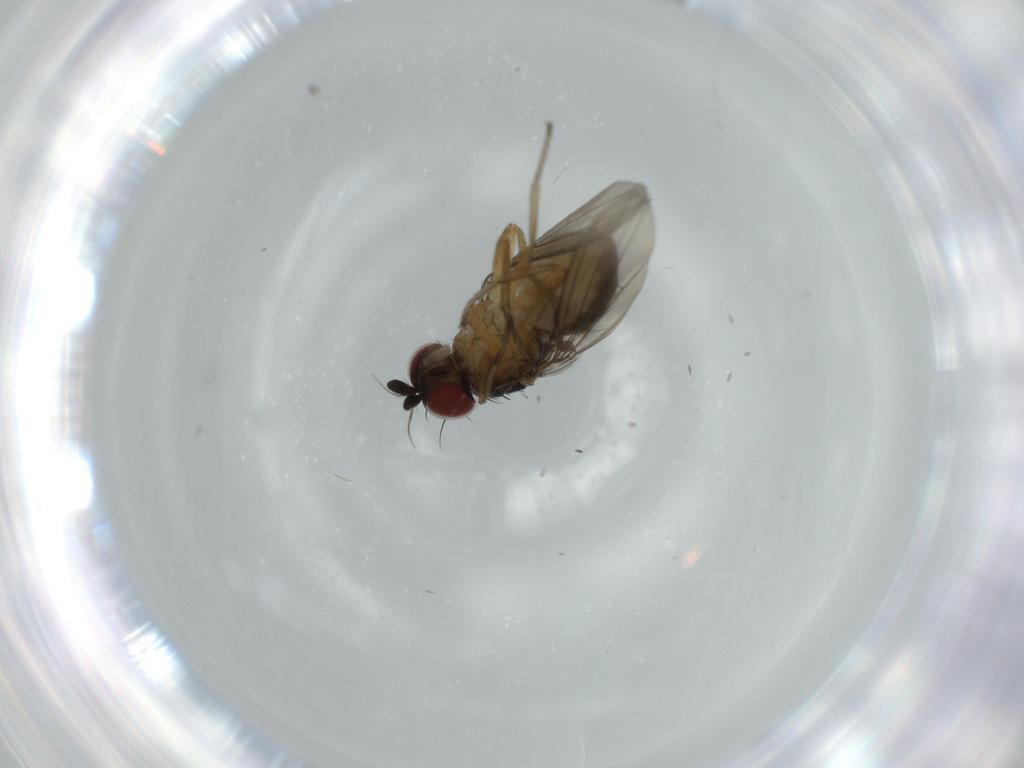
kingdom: Animalia
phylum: Arthropoda
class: Insecta
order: Diptera
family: Lauxaniidae
